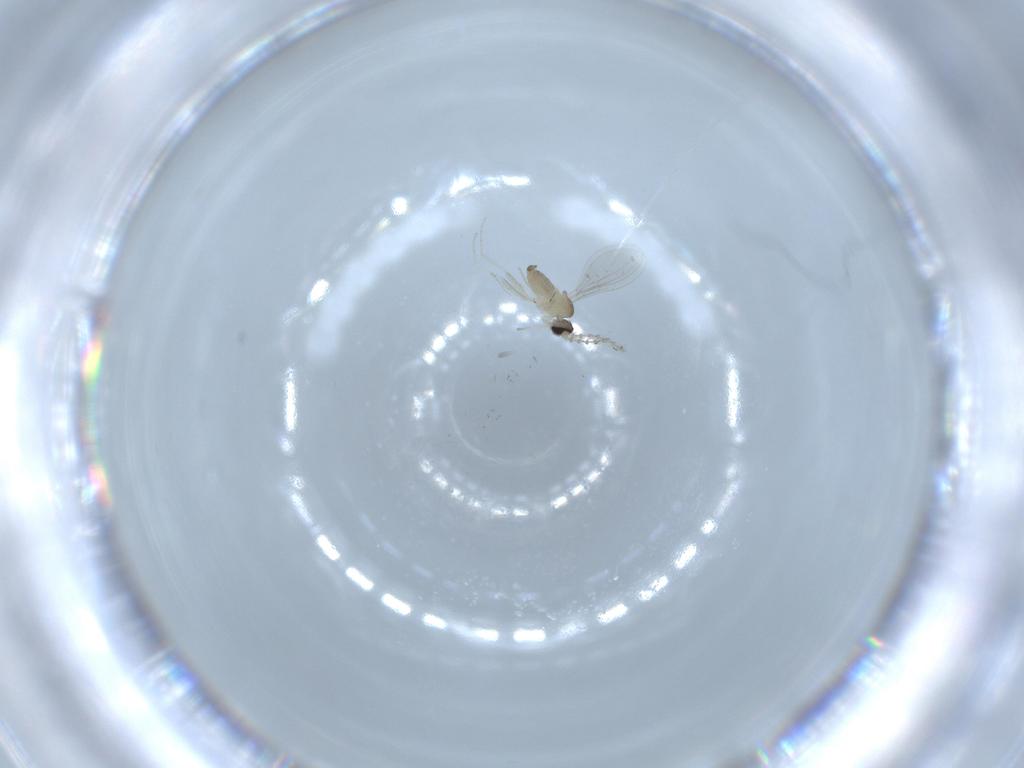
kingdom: Animalia
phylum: Arthropoda
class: Insecta
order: Diptera
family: Cecidomyiidae
